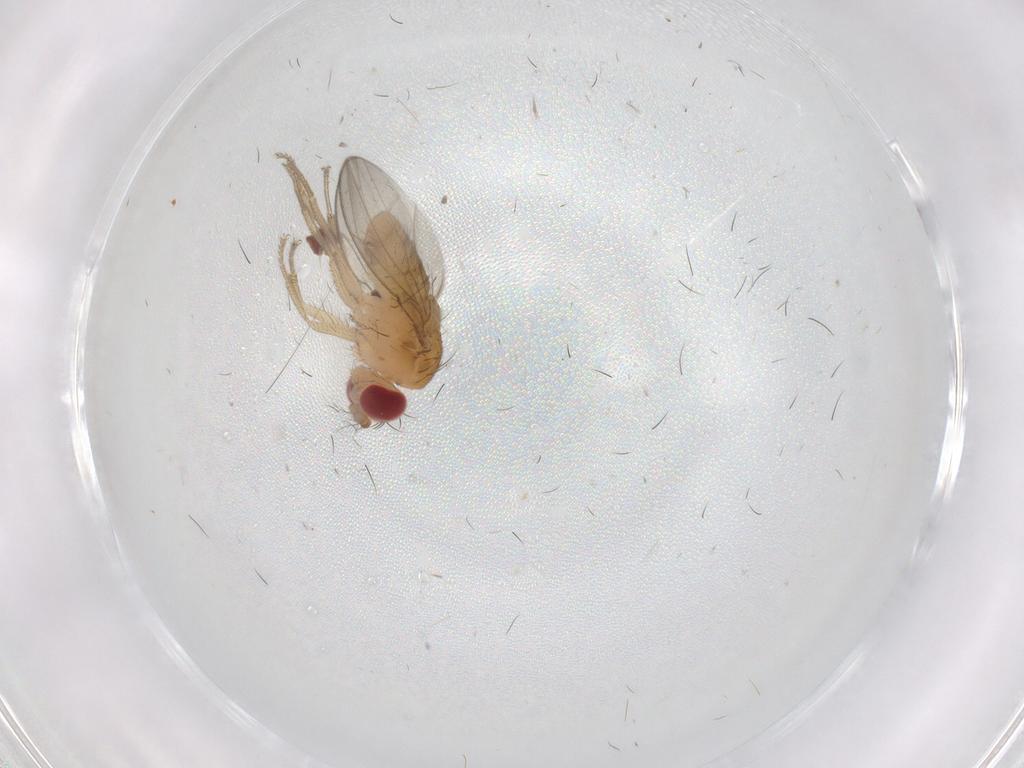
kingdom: Animalia
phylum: Arthropoda
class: Insecta
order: Diptera
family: Drosophilidae
